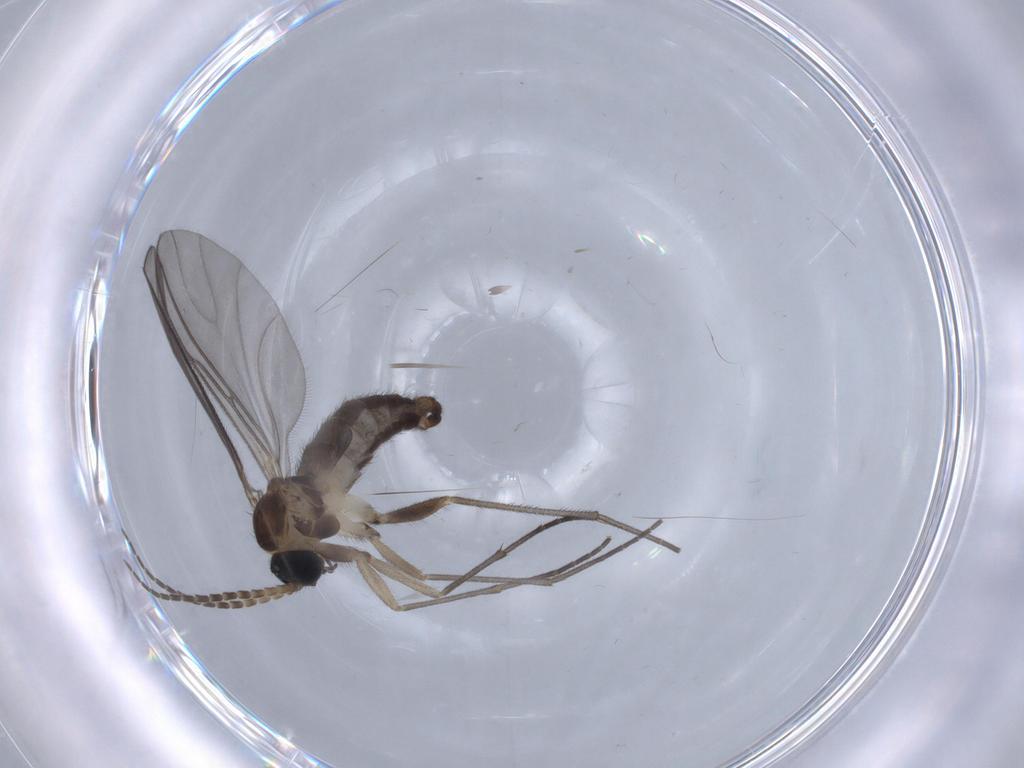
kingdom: Animalia
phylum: Arthropoda
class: Insecta
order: Diptera
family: Sciaridae
